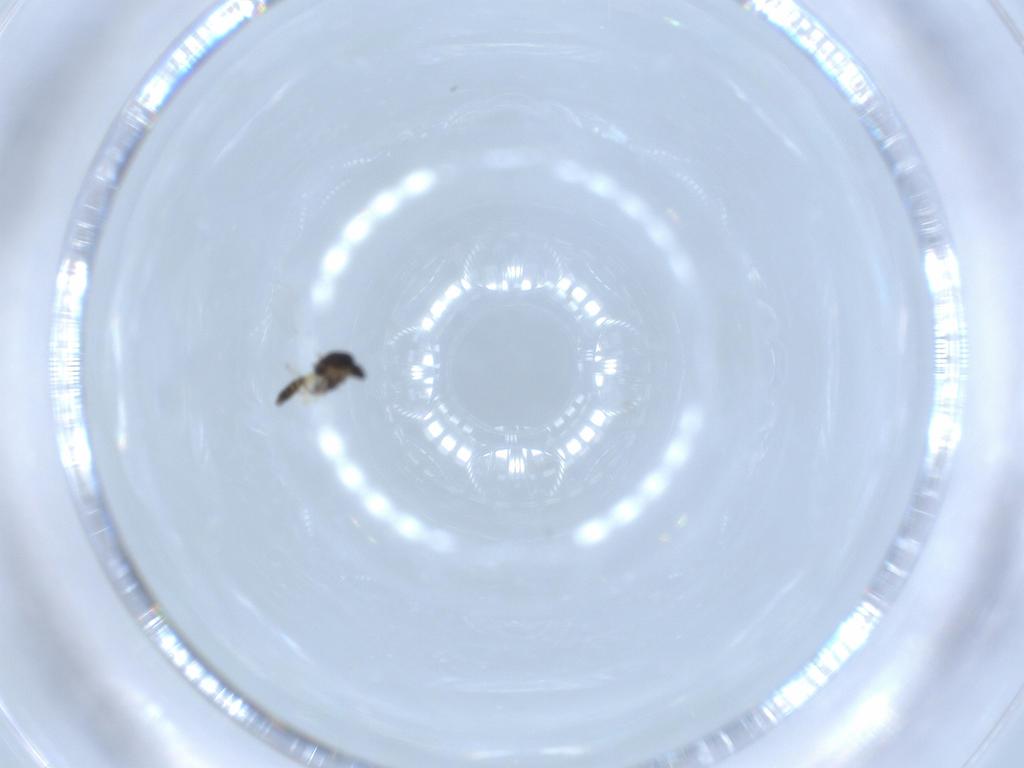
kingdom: Animalia
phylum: Arthropoda
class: Insecta
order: Diptera
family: Chironomidae
